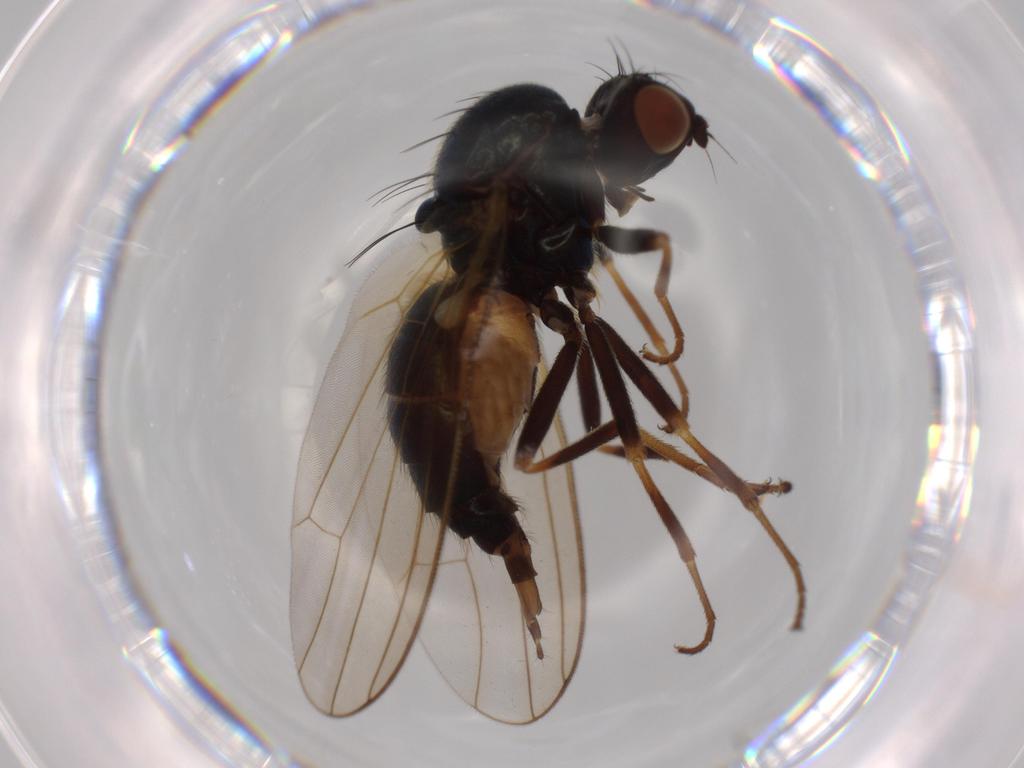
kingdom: Animalia
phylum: Arthropoda
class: Insecta
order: Diptera
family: Psilidae
